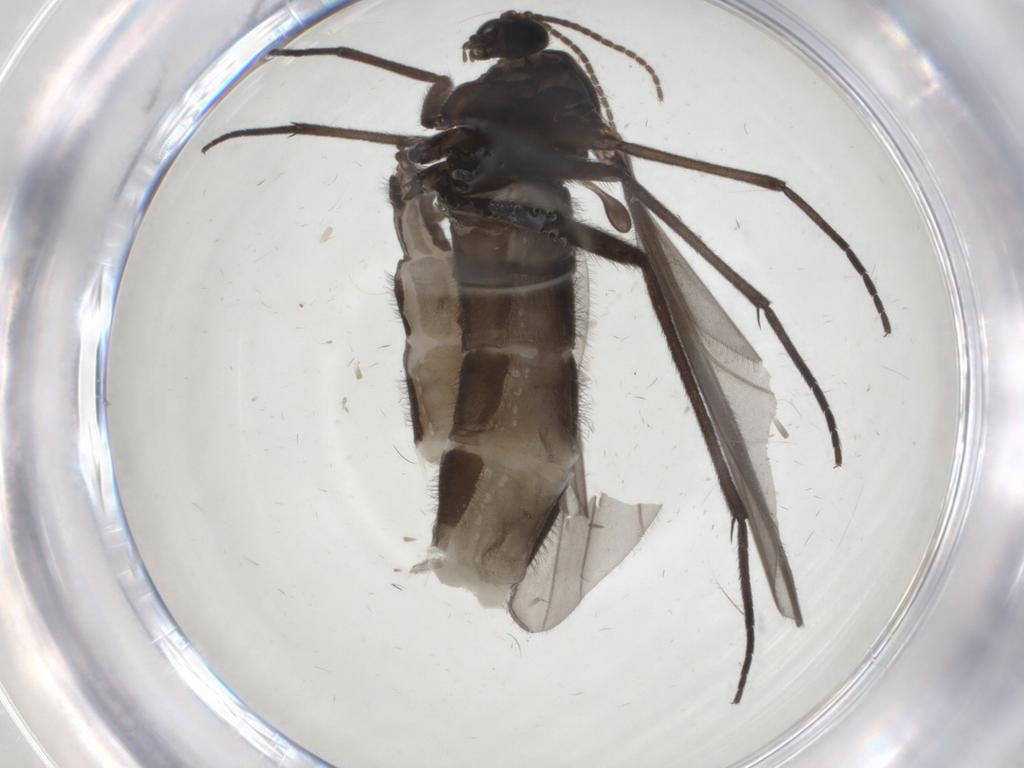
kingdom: Animalia
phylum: Arthropoda
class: Insecta
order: Diptera
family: Sciaridae
